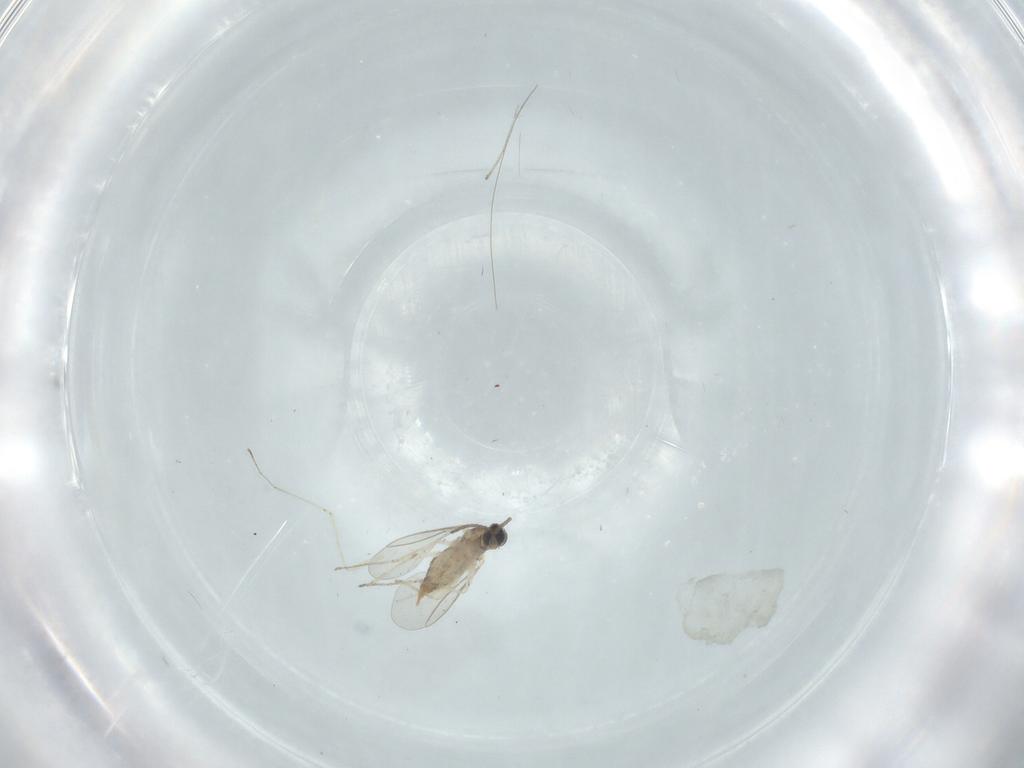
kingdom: Animalia
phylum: Arthropoda
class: Insecta
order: Diptera
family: Cecidomyiidae
